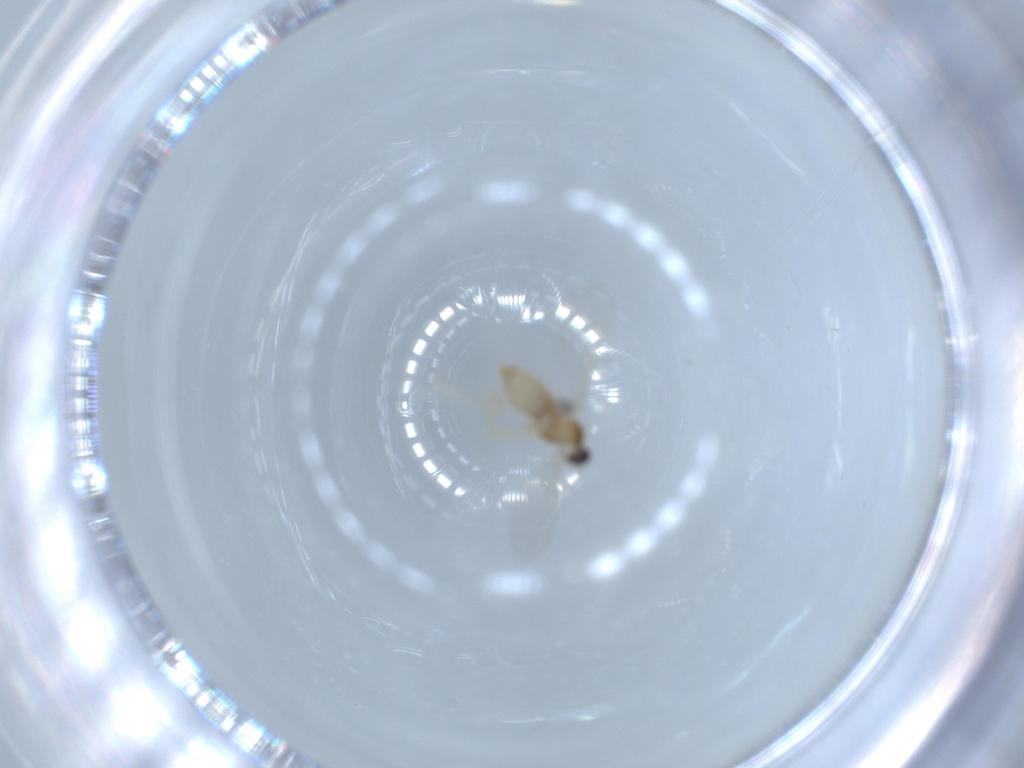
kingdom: Animalia
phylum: Arthropoda
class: Insecta
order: Diptera
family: Cecidomyiidae
